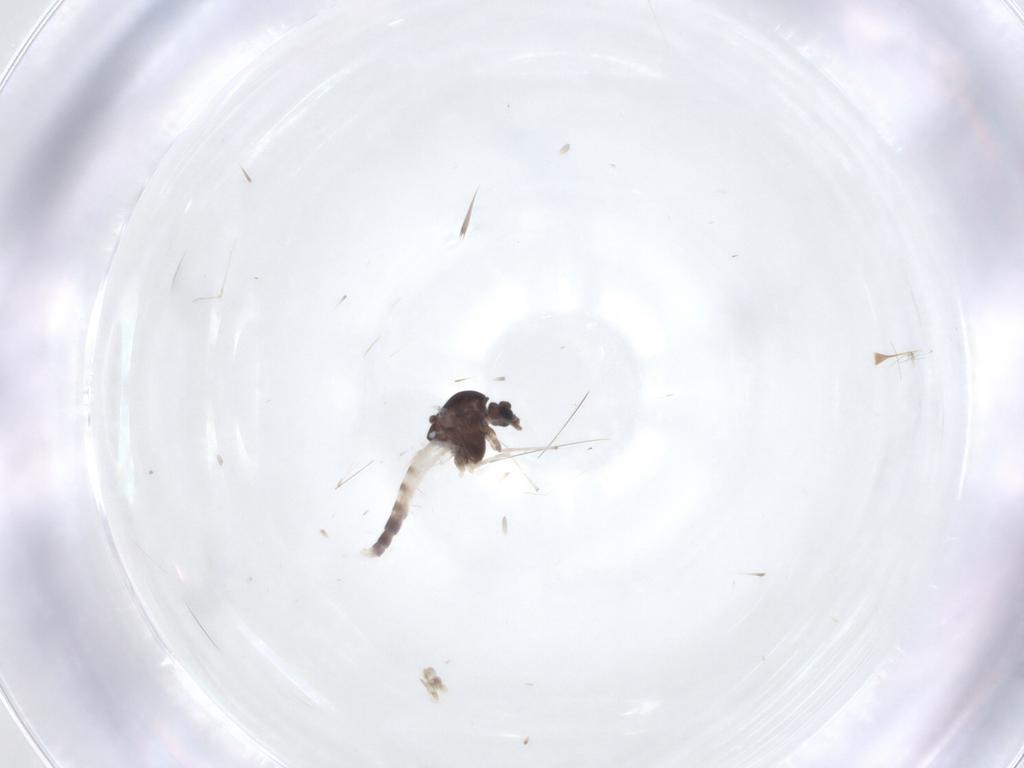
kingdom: Animalia
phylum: Arthropoda
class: Insecta
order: Diptera
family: Chironomidae
